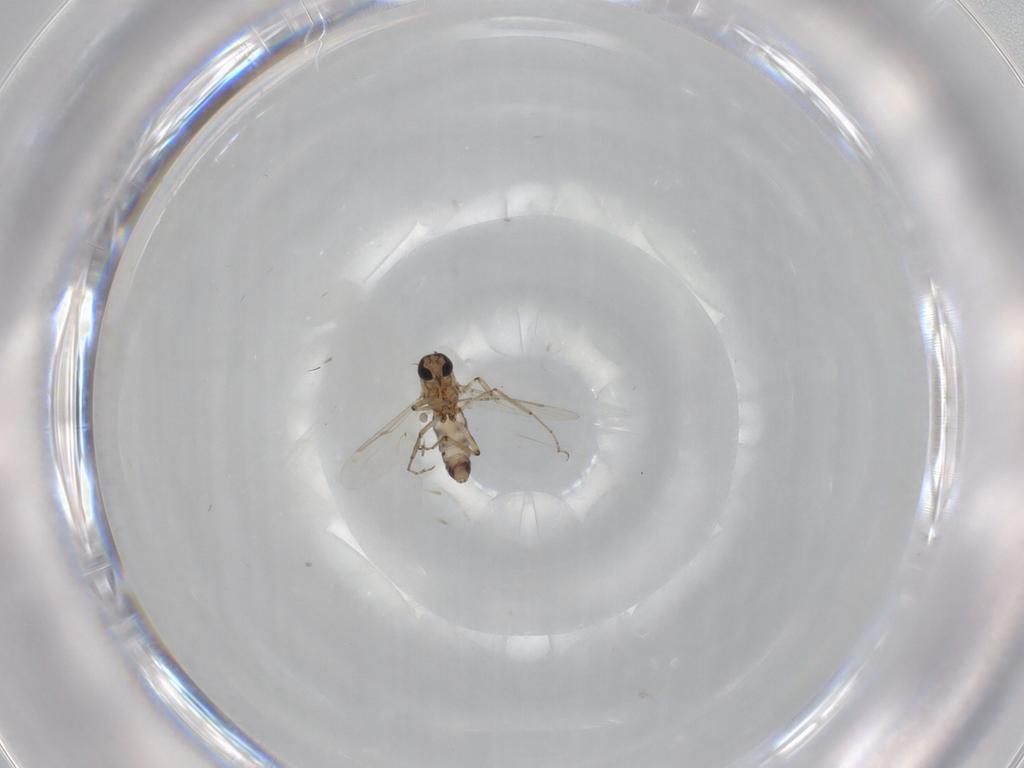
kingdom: Animalia
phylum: Arthropoda
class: Insecta
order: Diptera
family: Ceratopogonidae
